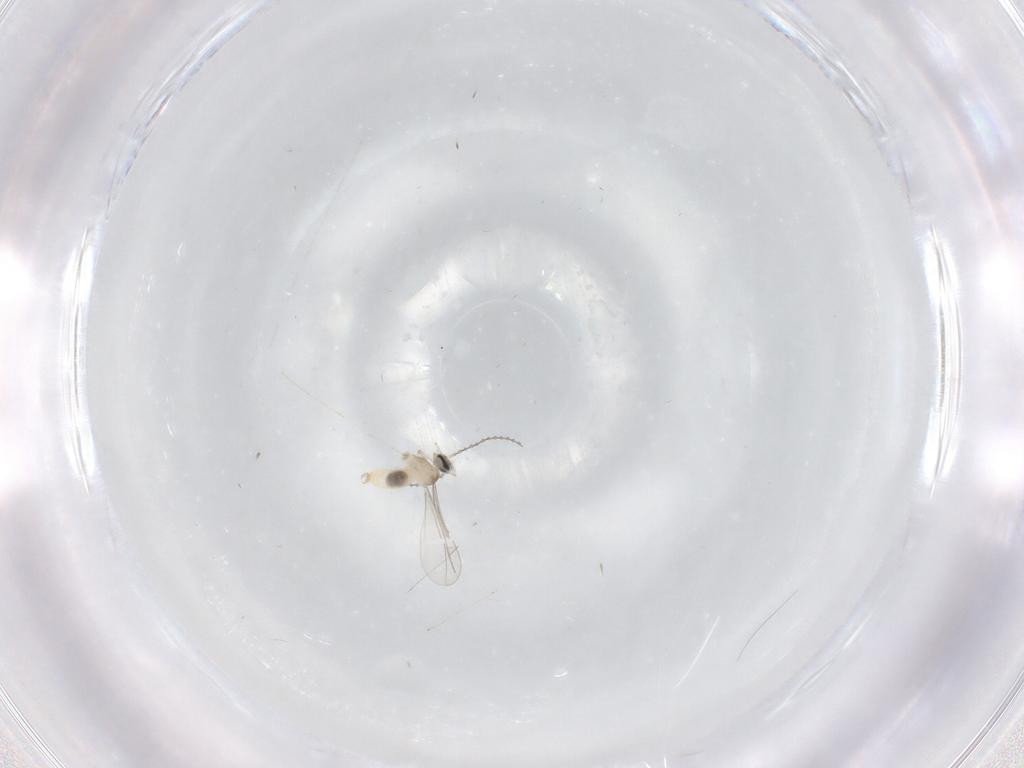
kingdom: Animalia
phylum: Arthropoda
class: Insecta
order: Diptera
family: Cecidomyiidae
